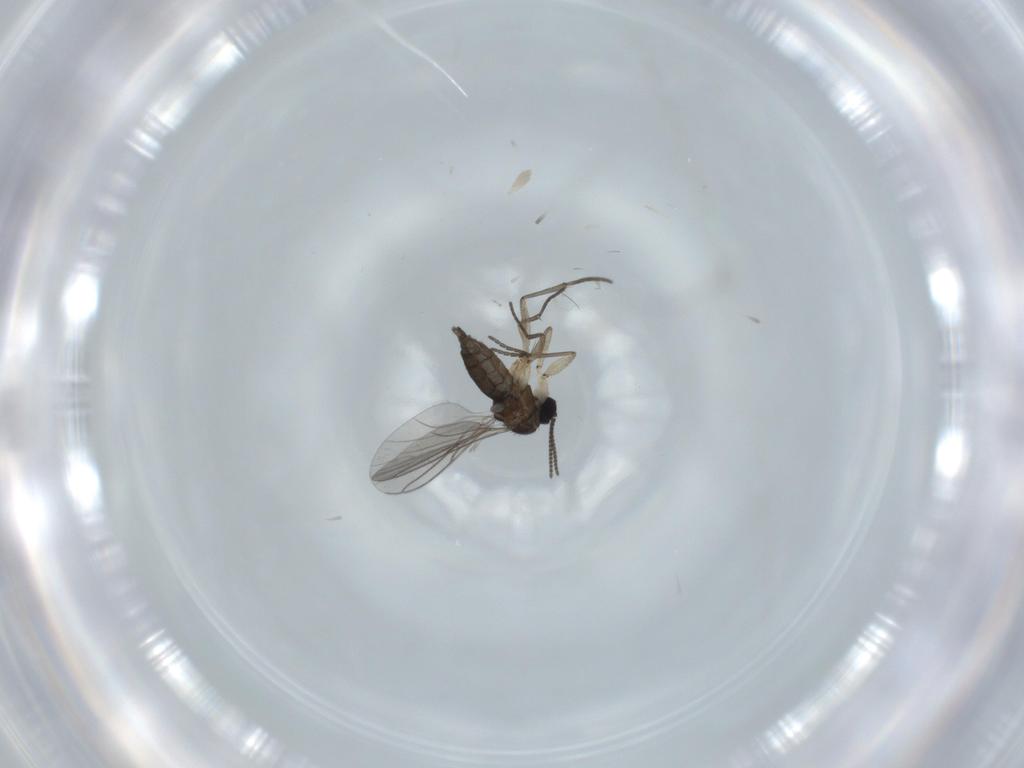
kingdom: Animalia
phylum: Arthropoda
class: Insecta
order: Diptera
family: Sciaridae
